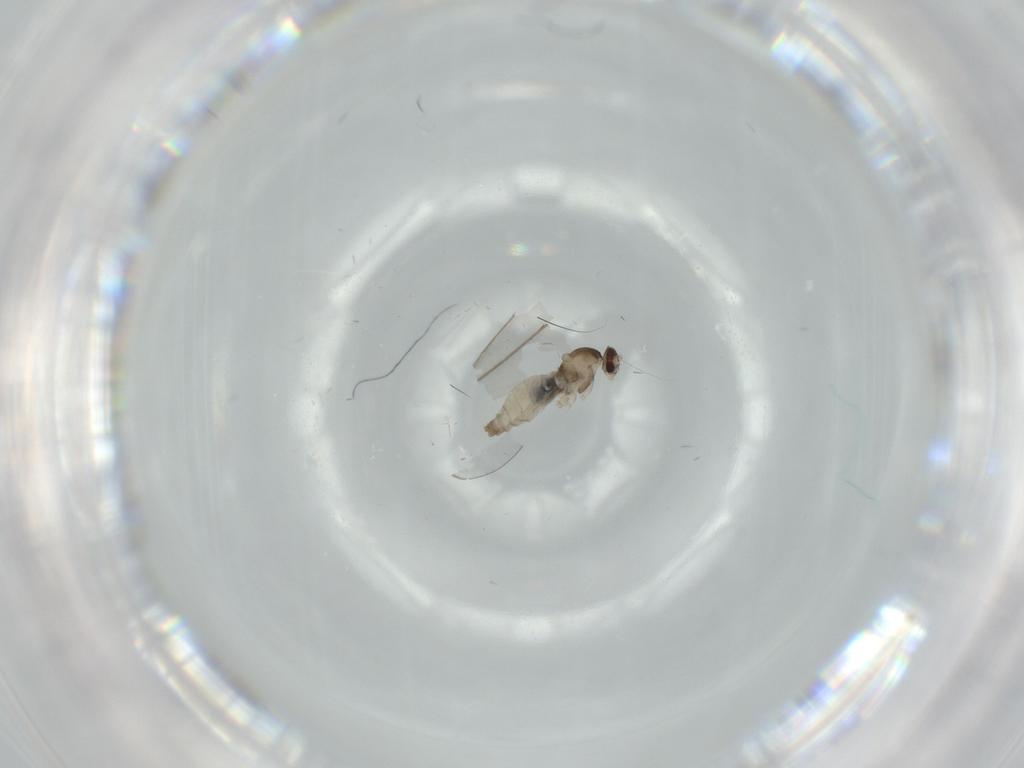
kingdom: Animalia
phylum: Arthropoda
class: Insecta
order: Diptera
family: Cecidomyiidae
